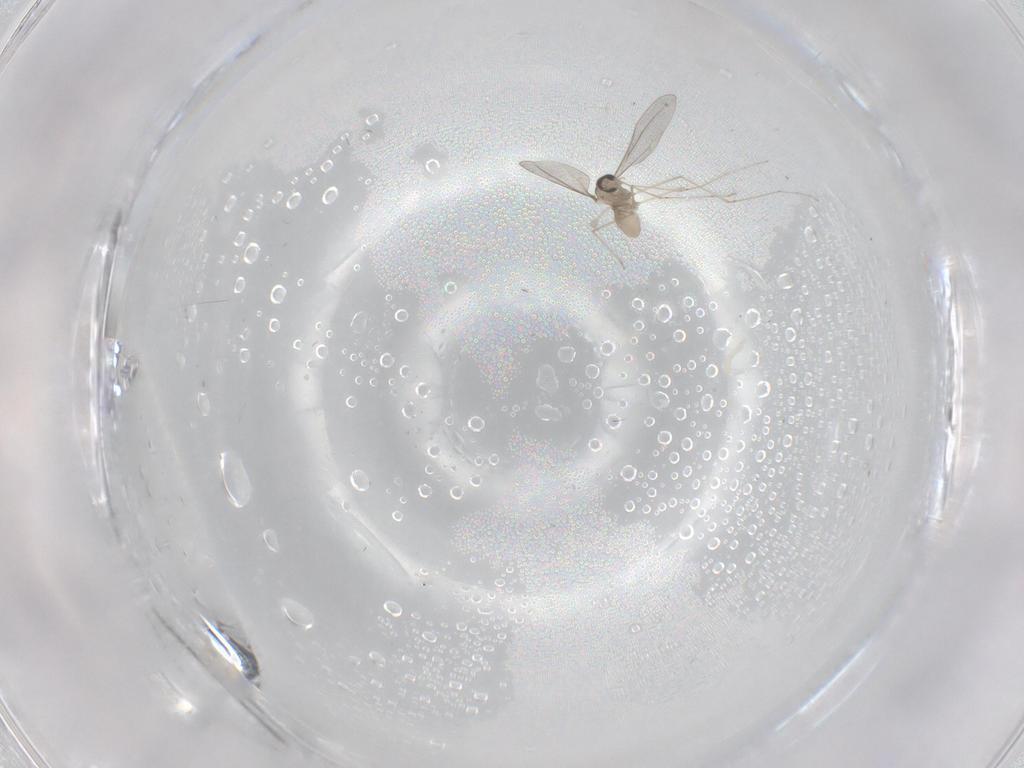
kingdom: Animalia
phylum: Arthropoda
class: Insecta
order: Diptera
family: Cecidomyiidae
